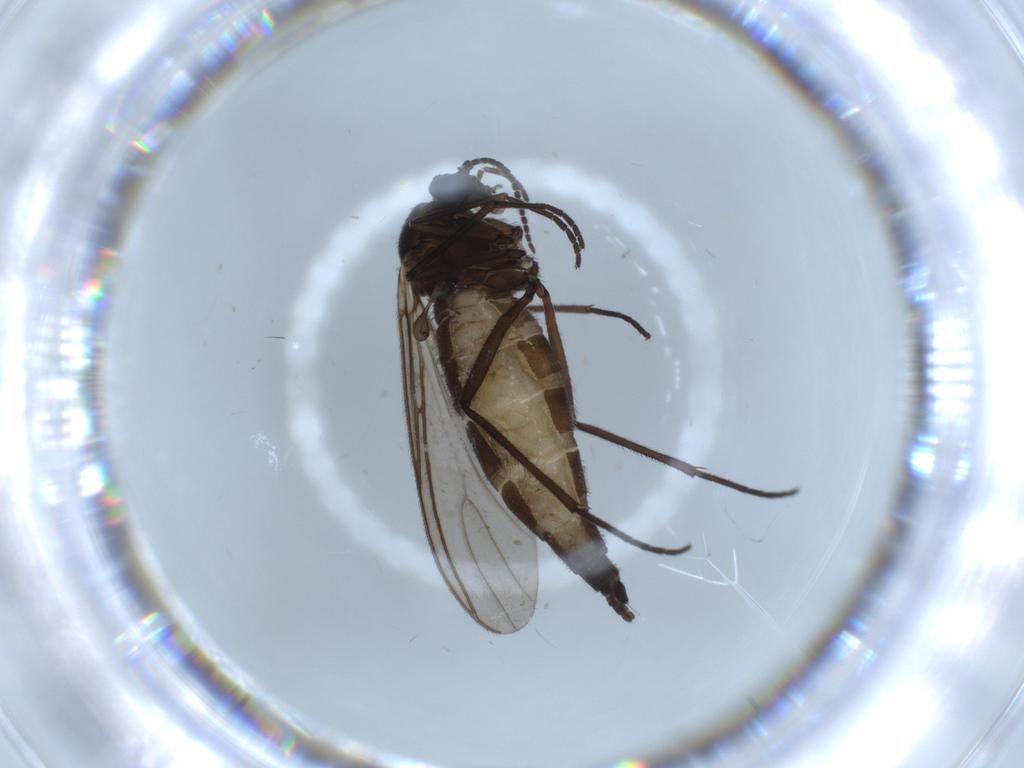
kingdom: Animalia
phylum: Arthropoda
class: Insecta
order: Diptera
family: Sciaridae
